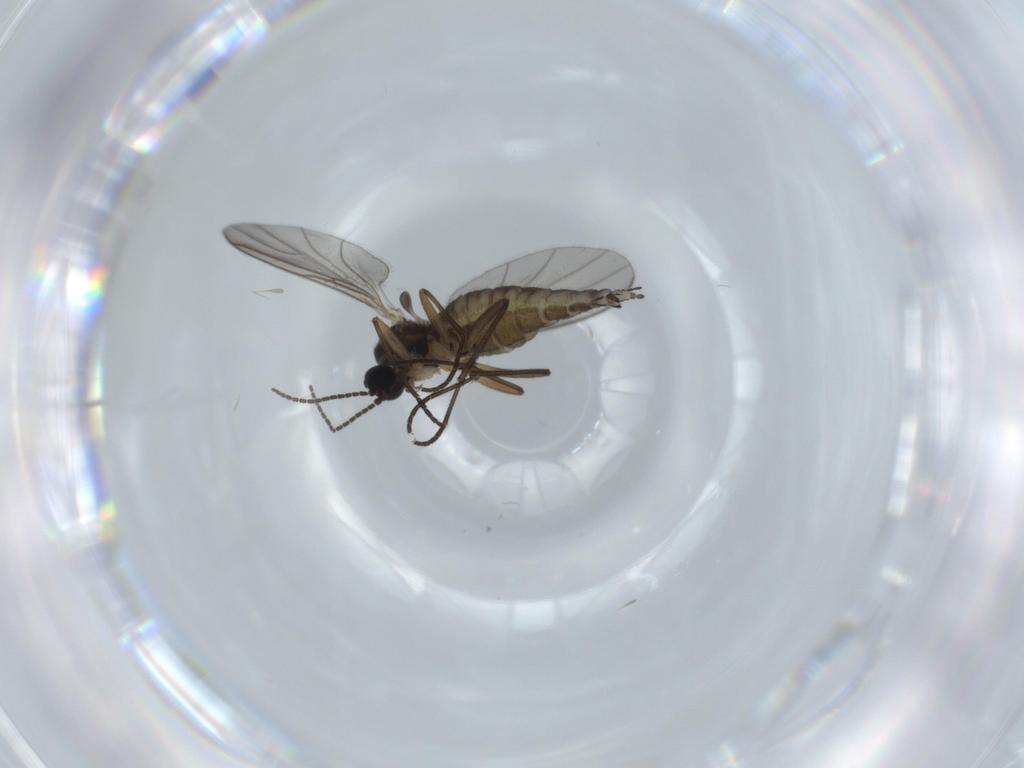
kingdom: Animalia
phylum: Arthropoda
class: Insecta
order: Diptera
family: Sciaridae
